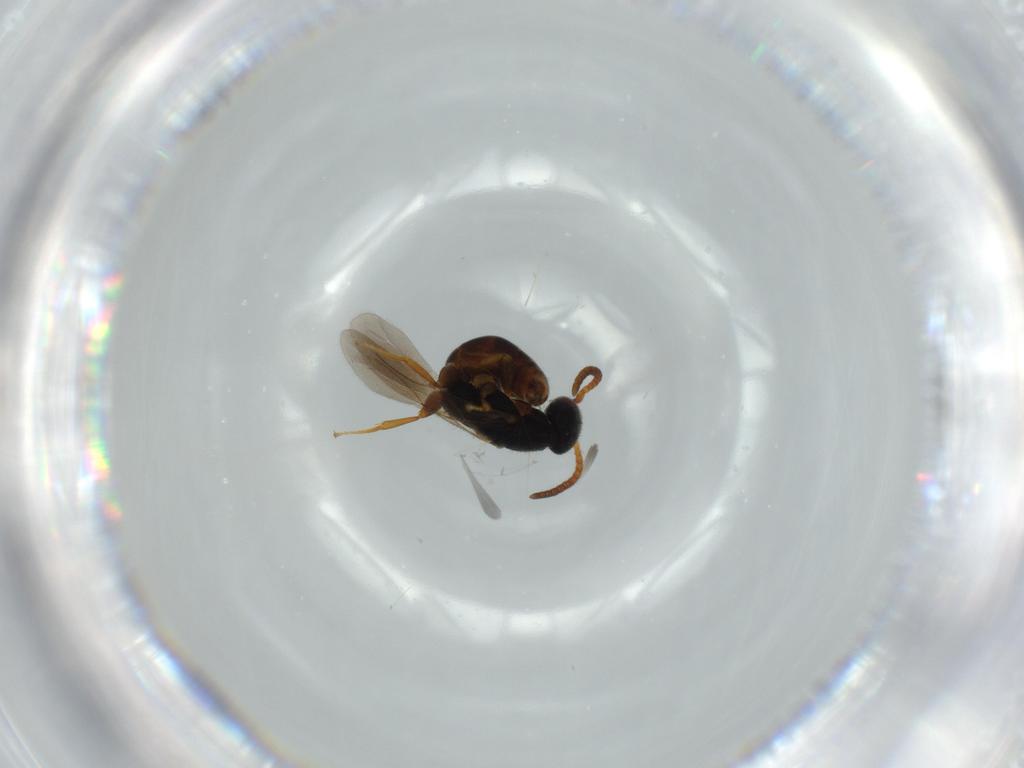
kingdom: Animalia
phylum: Arthropoda
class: Insecta
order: Hymenoptera
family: Bethylidae
